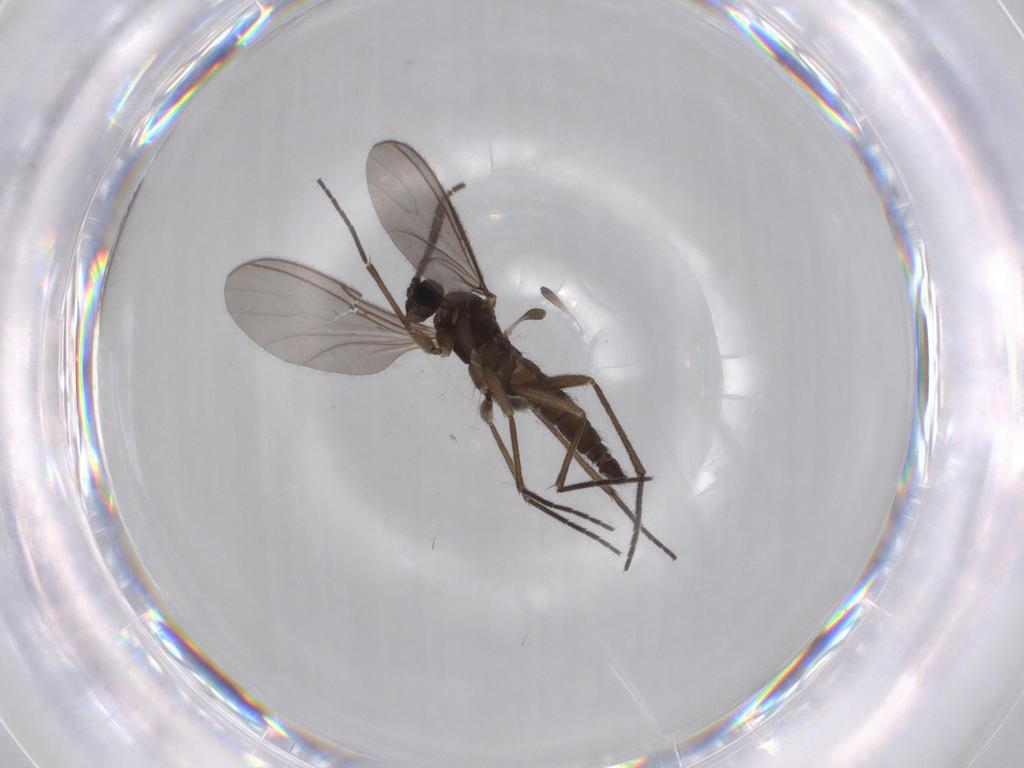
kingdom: Animalia
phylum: Arthropoda
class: Insecta
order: Diptera
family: Sciaridae
